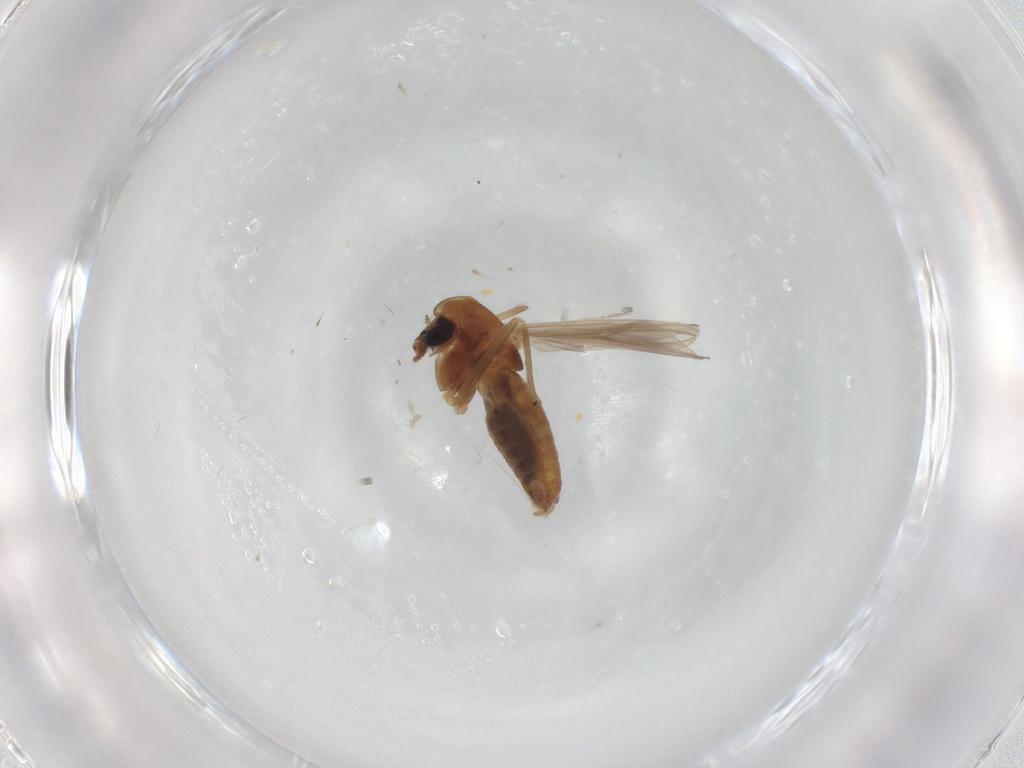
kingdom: Animalia
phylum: Arthropoda
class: Insecta
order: Diptera
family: Chironomidae
